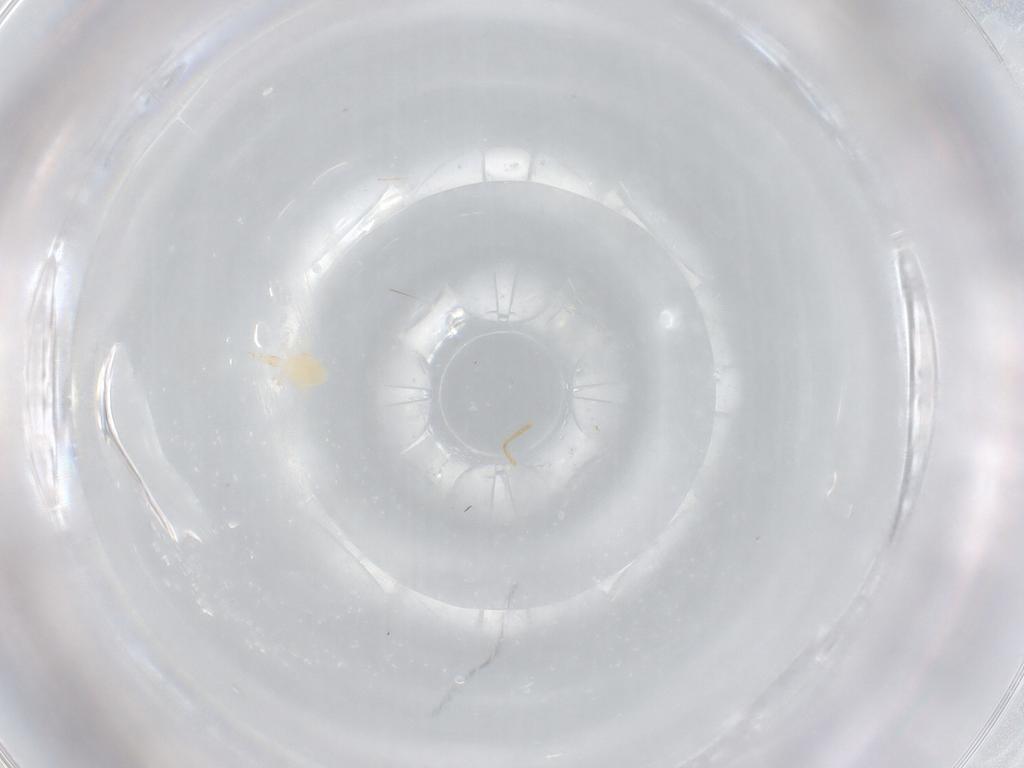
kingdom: Animalia
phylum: Arthropoda
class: Arachnida
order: Trombidiformes
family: Cunaxidae
